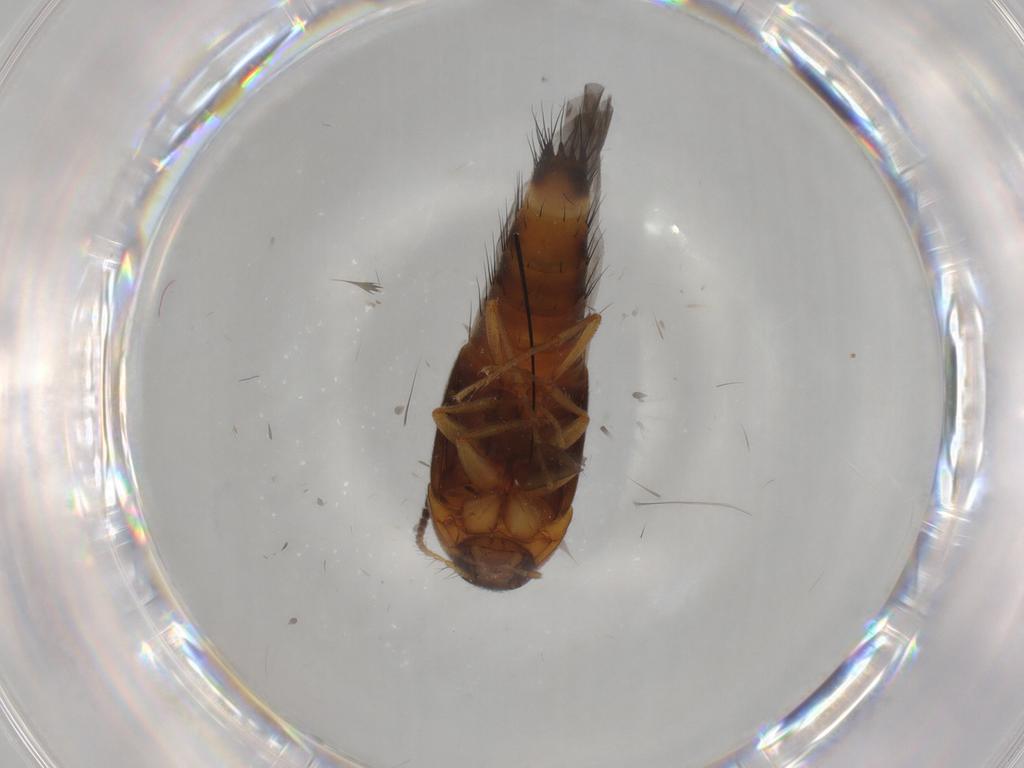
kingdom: Animalia
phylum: Arthropoda
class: Insecta
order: Coleoptera
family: Staphylinidae
